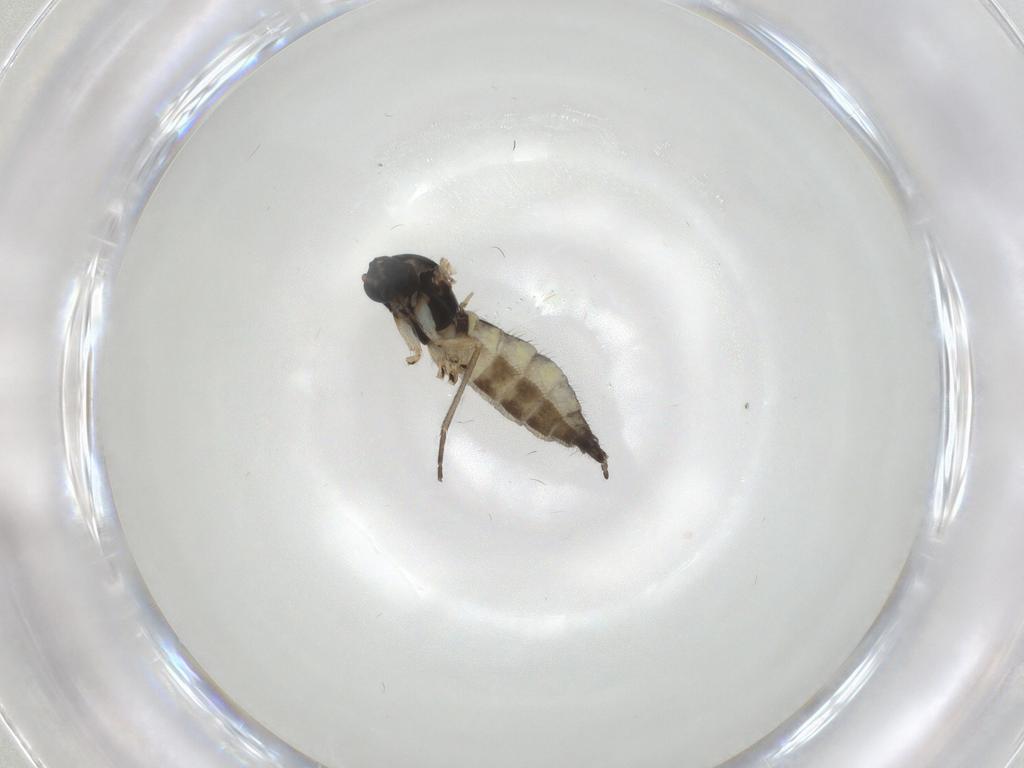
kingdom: Animalia
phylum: Arthropoda
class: Insecta
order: Diptera
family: Sciaridae
